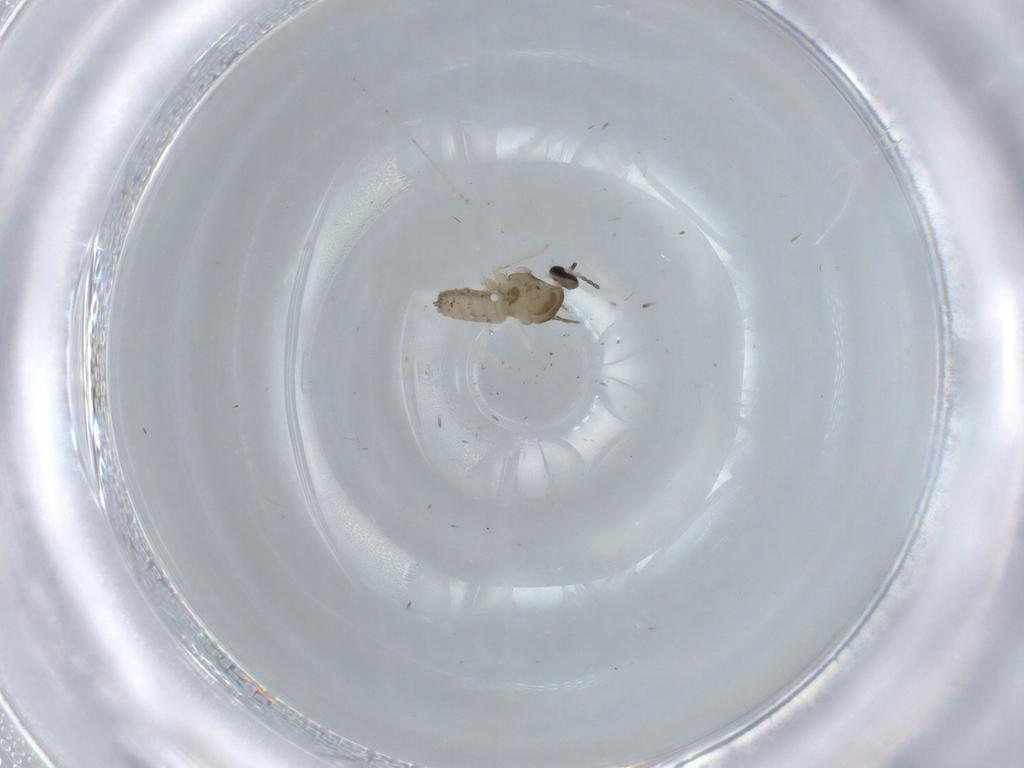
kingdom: Animalia
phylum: Arthropoda
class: Insecta
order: Diptera
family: Cecidomyiidae
